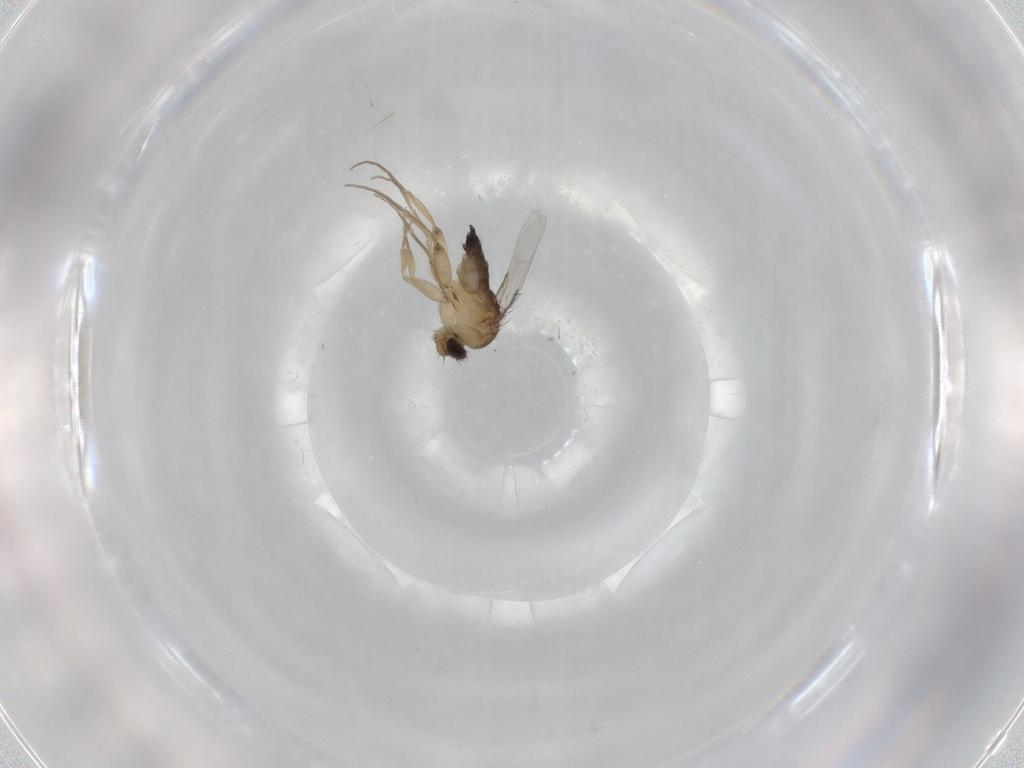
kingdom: Animalia
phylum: Arthropoda
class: Insecta
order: Diptera
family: Phoridae
